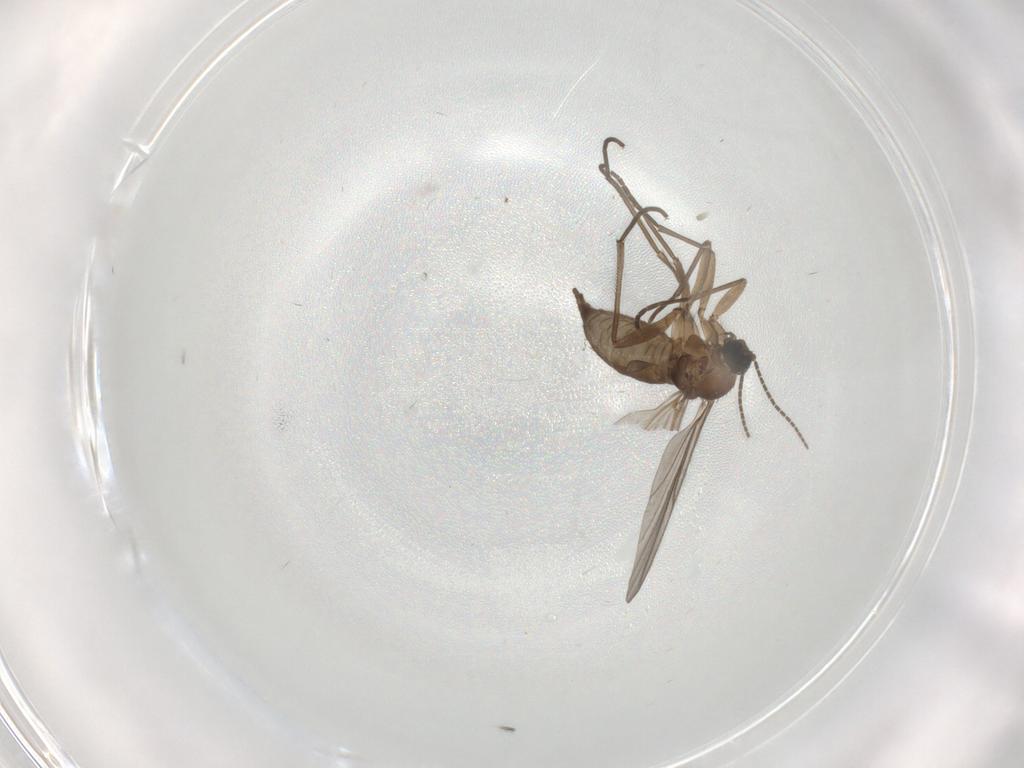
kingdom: Animalia
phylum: Arthropoda
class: Insecta
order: Diptera
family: Sciaridae
